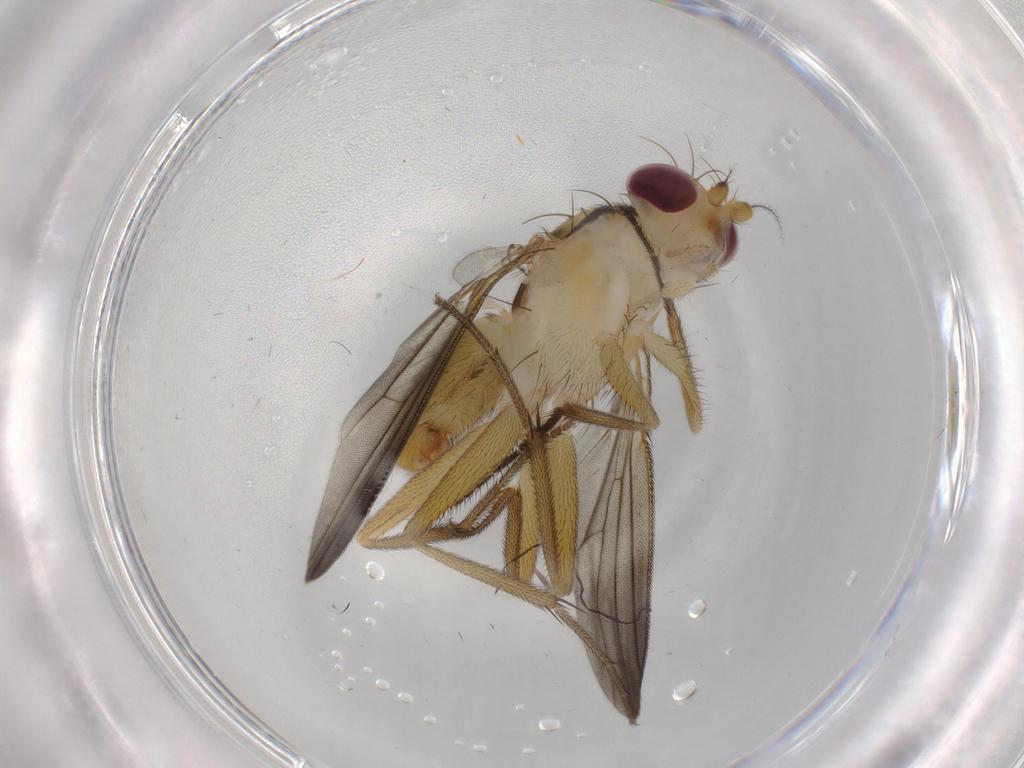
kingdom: Animalia
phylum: Arthropoda
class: Insecta
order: Diptera
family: Clusiidae
